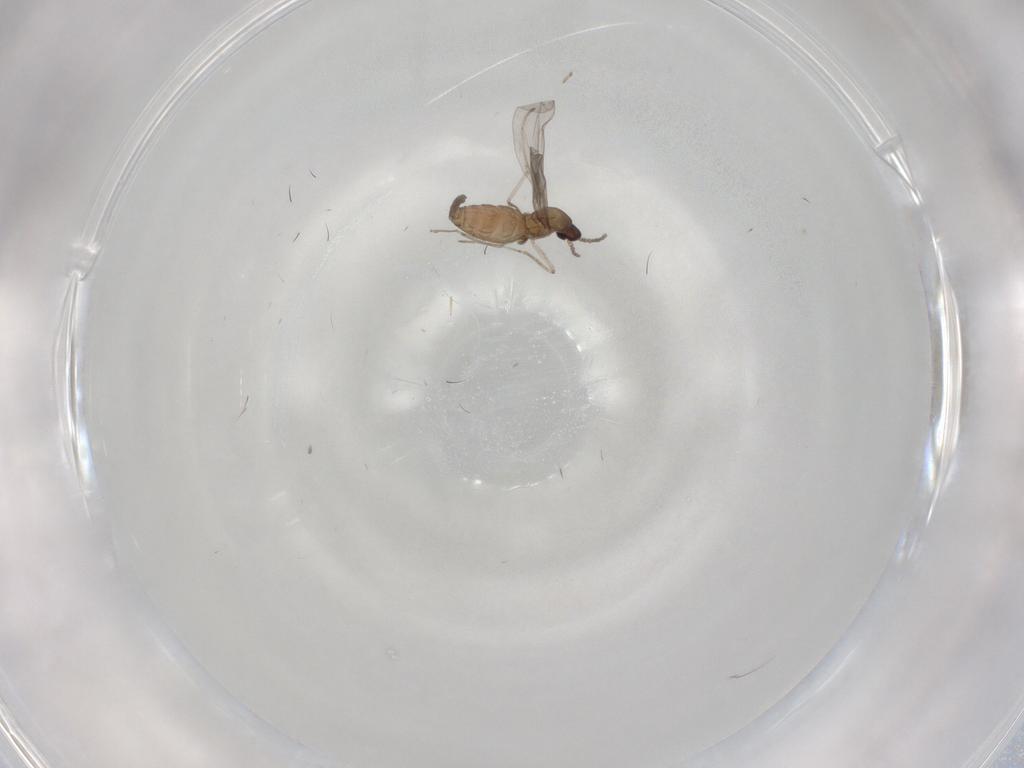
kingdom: Animalia
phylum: Arthropoda
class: Insecta
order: Diptera
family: Cecidomyiidae
